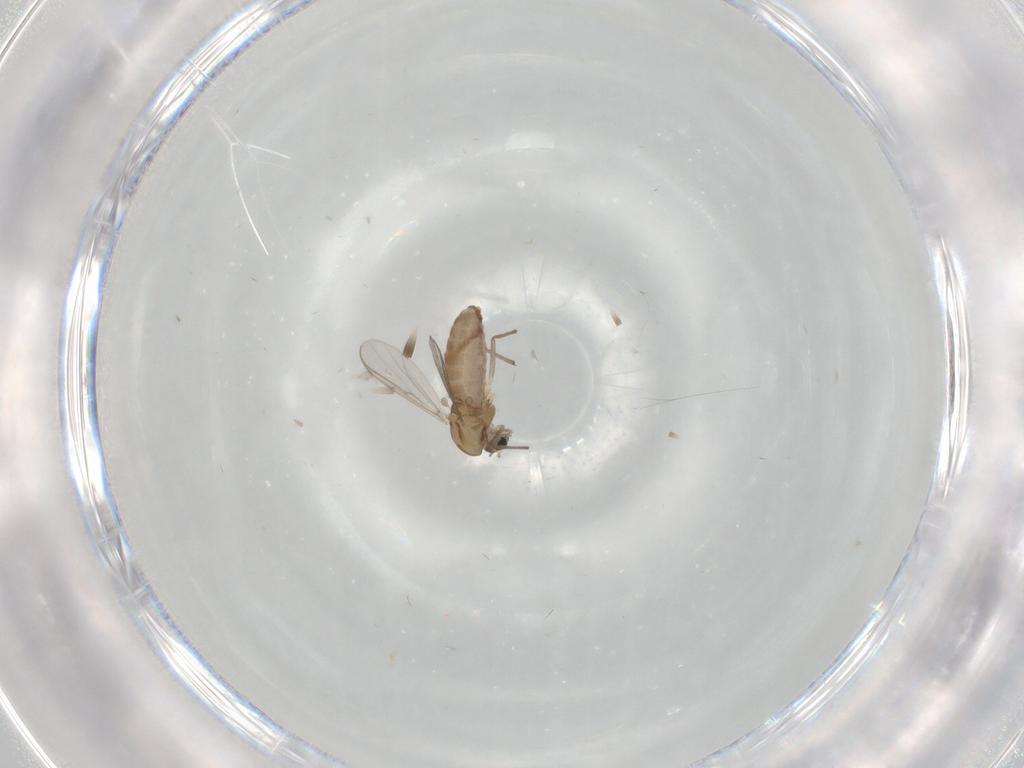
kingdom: Animalia
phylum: Arthropoda
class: Insecta
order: Diptera
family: Chironomidae
